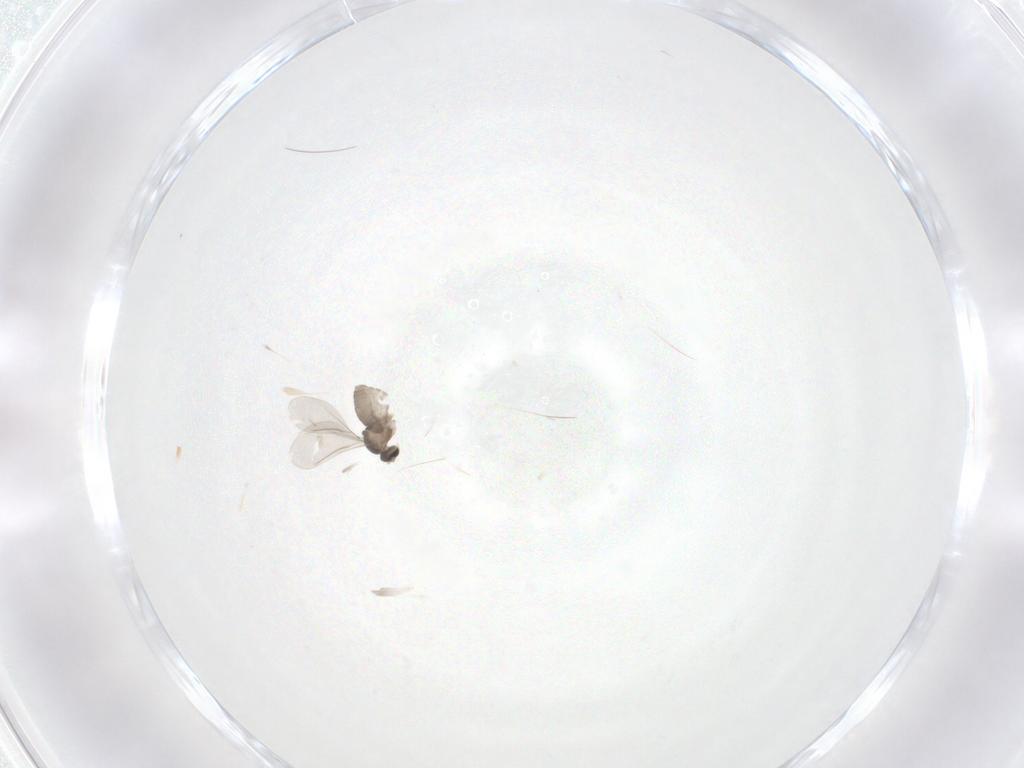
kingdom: Animalia
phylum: Arthropoda
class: Insecta
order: Diptera
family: Cecidomyiidae
